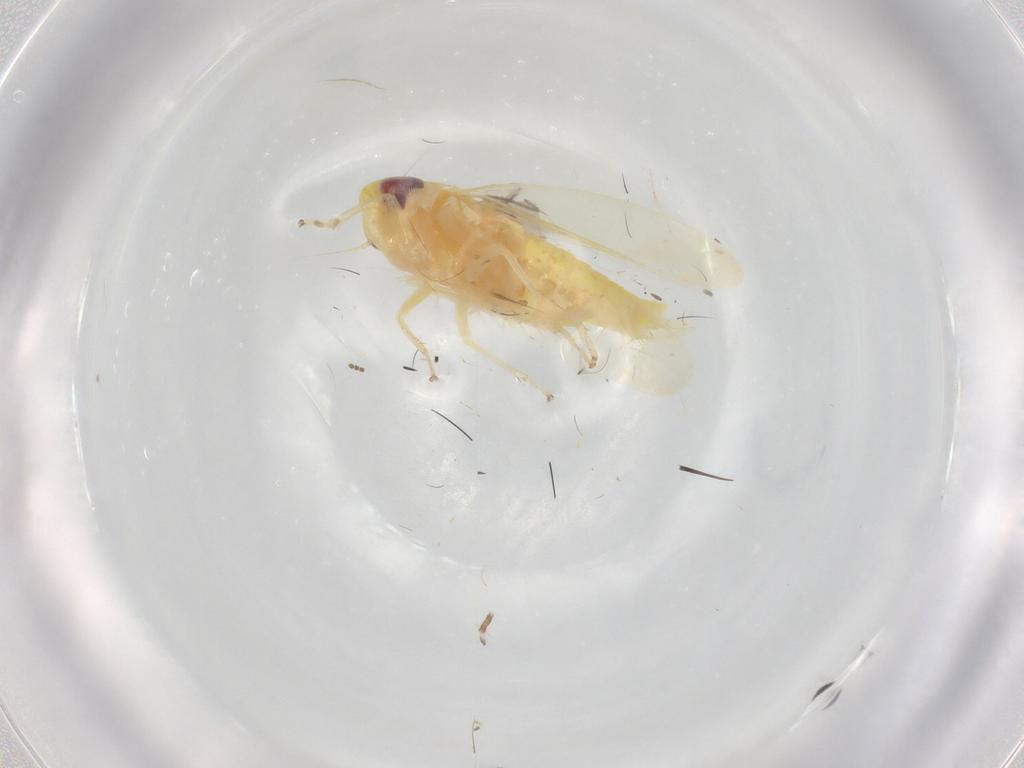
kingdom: Animalia
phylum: Arthropoda
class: Insecta
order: Hemiptera
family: Cicadellidae
